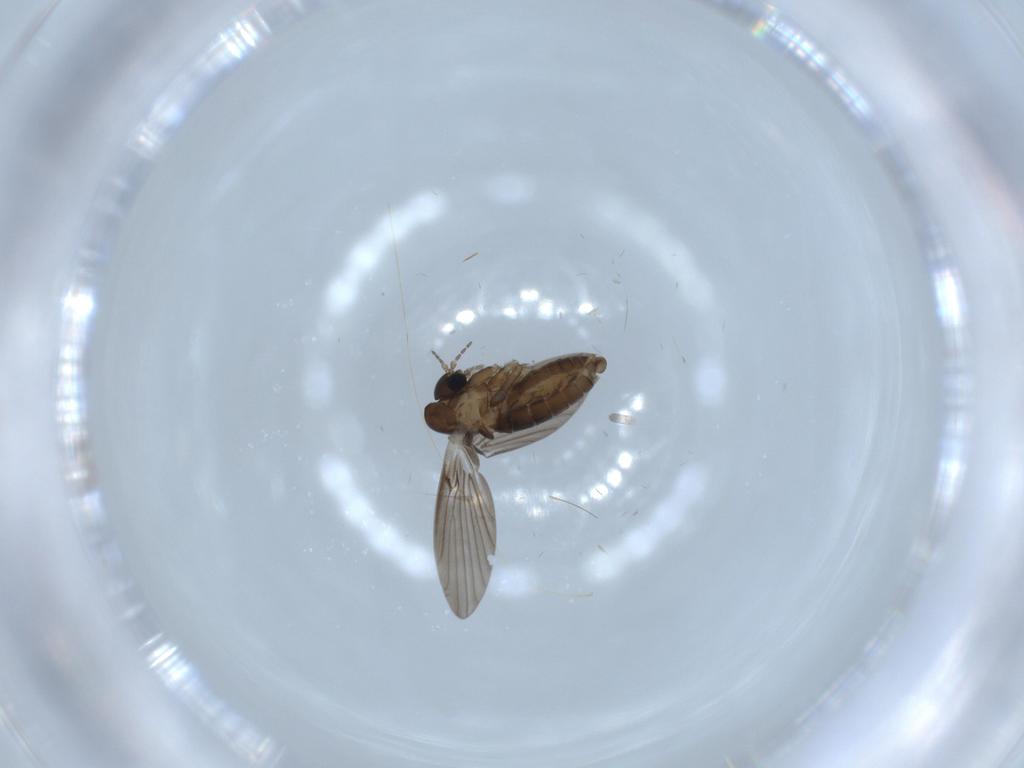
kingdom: Animalia
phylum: Arthropoda
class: Insecta
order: Diptera
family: Psychodidae
